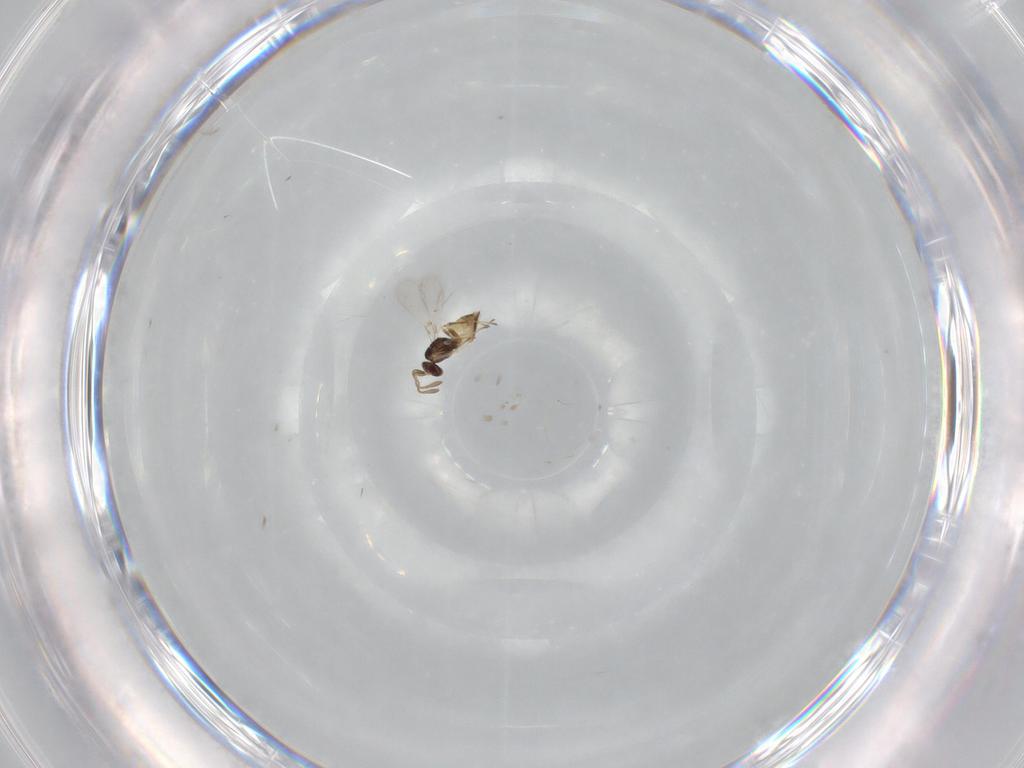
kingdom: Animalia
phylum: Arthropoda
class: Insecta
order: Hymenoptera
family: Mymaridae
